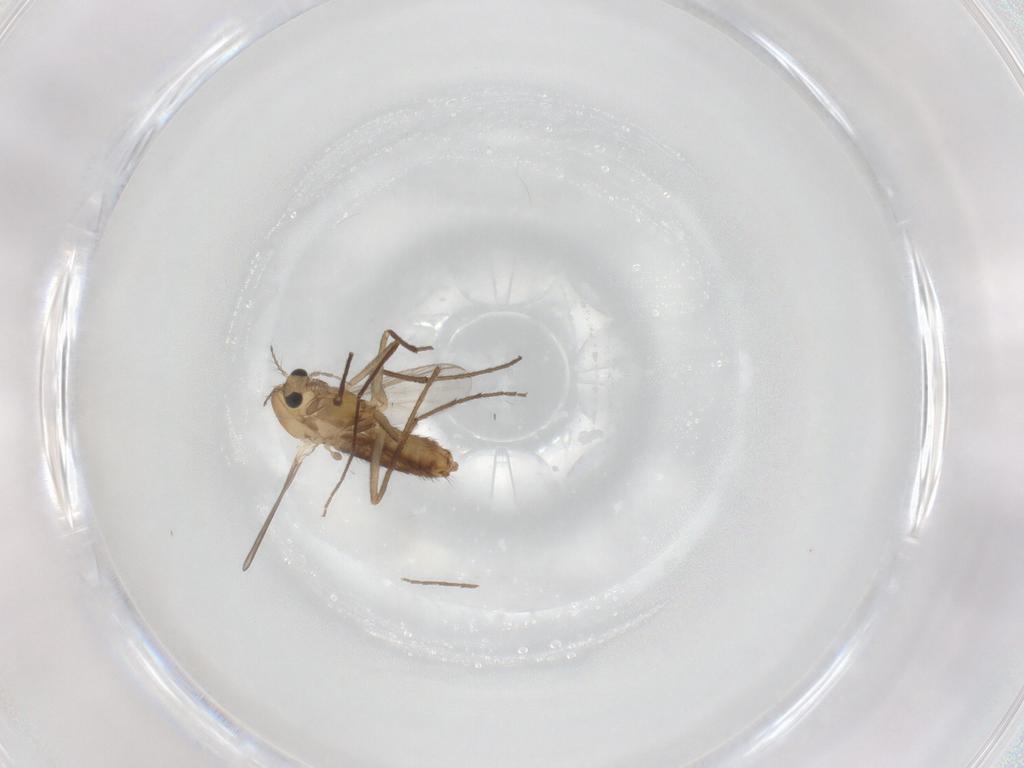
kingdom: Animalia
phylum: Arthropoda
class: Insecta
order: Diptera
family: Chironomidae
